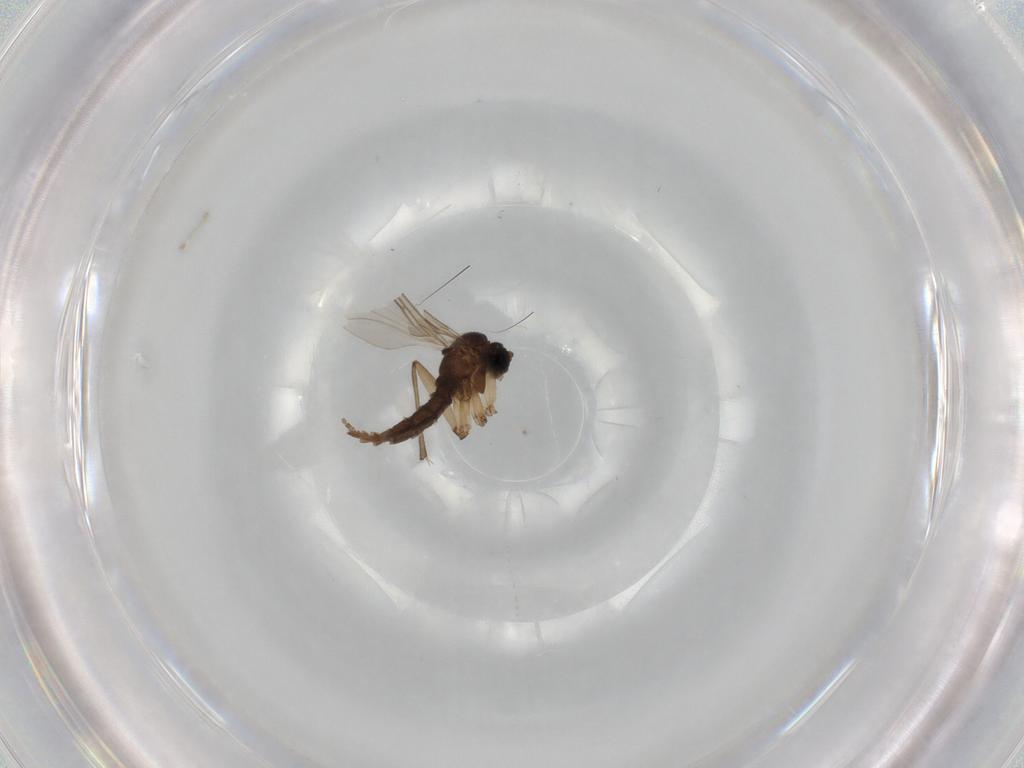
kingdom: Animalia
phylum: Arthropoda
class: Insecta
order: Diptera
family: Sciaridae
